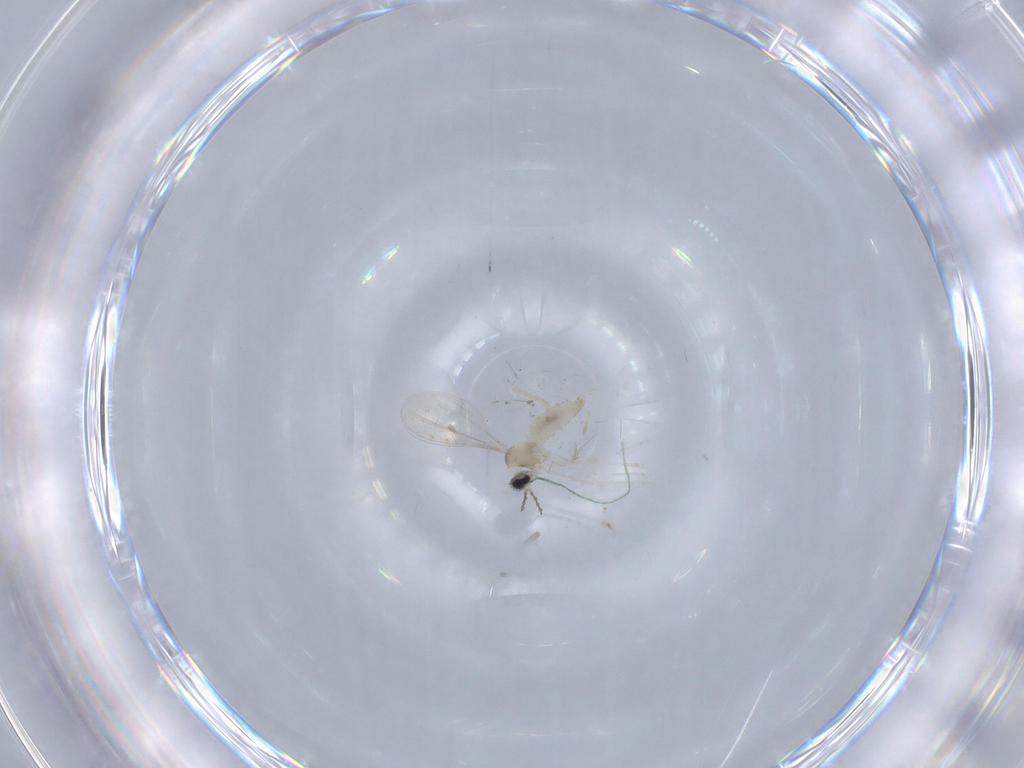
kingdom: Animalia
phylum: Arthropoda
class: Insecta
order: Diptera
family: Cecidomyiidae
